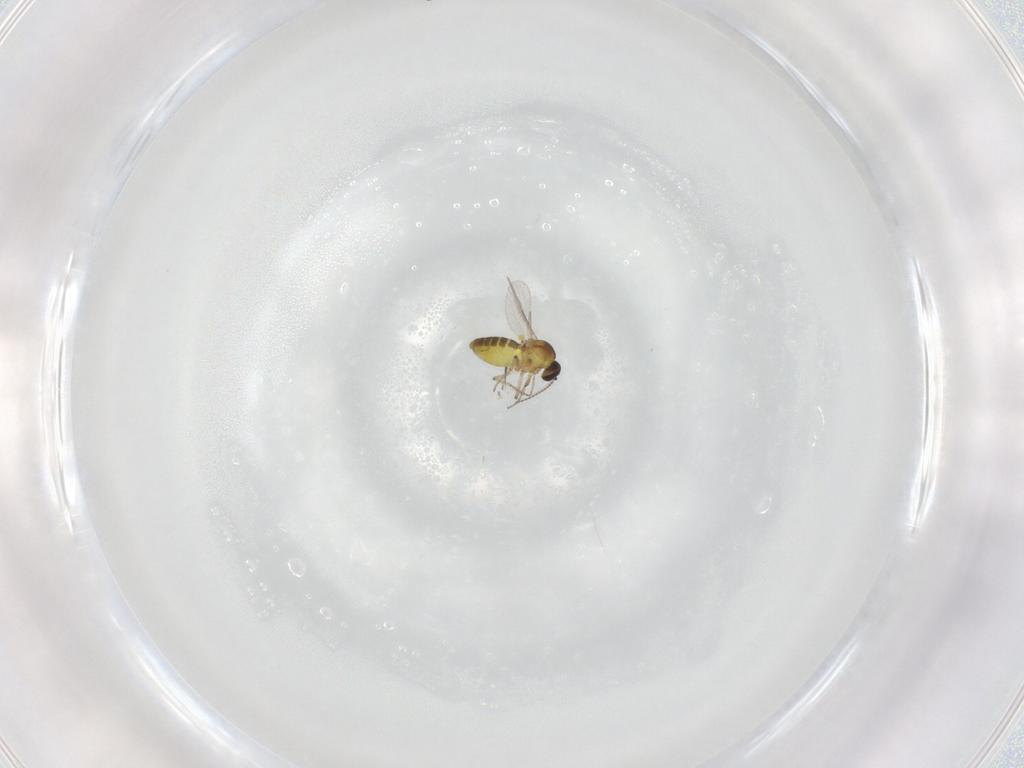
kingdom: Animalia
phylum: Arthropoda
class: Insecta
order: Diptera
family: Ceratopogonidae
